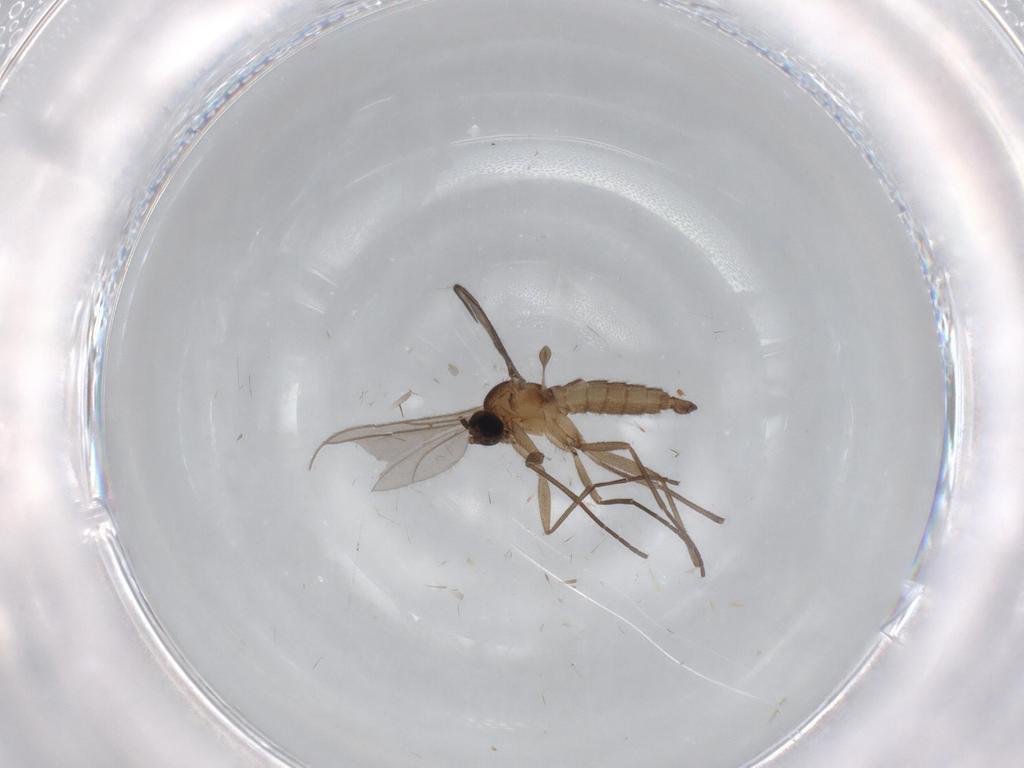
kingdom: Animalia
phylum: Arthropoda
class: Insecta
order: Diptera
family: Sciaridae
